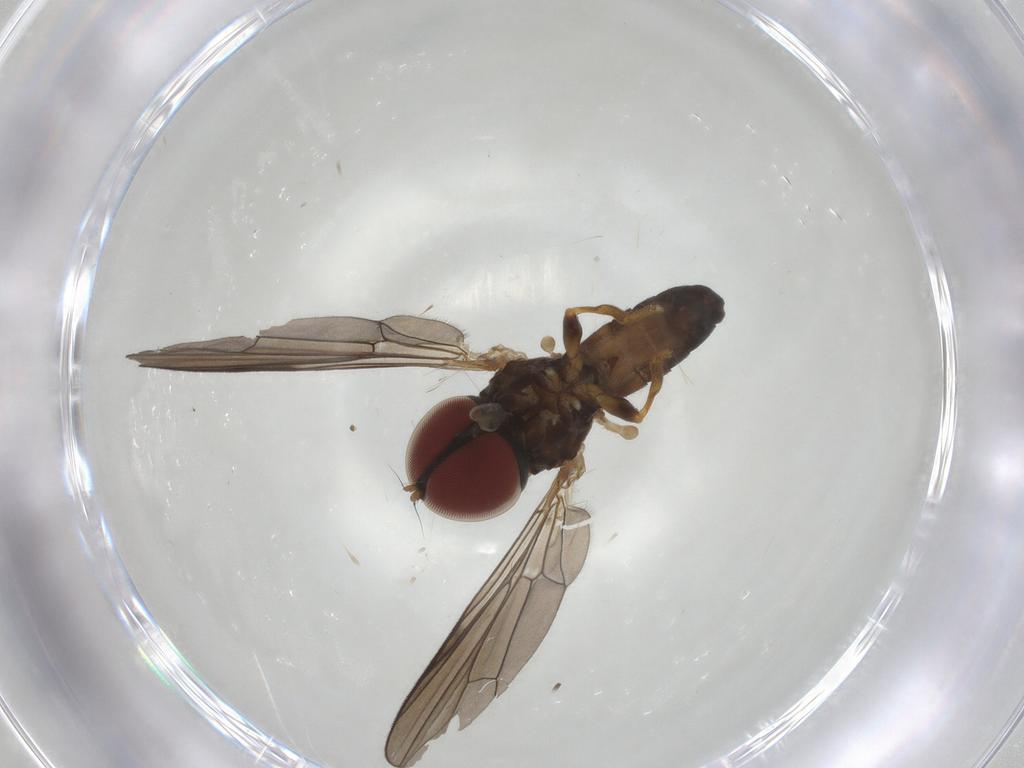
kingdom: Animalia
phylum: Arthropoda
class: Insecta
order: Diptera
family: Pipunculidae
